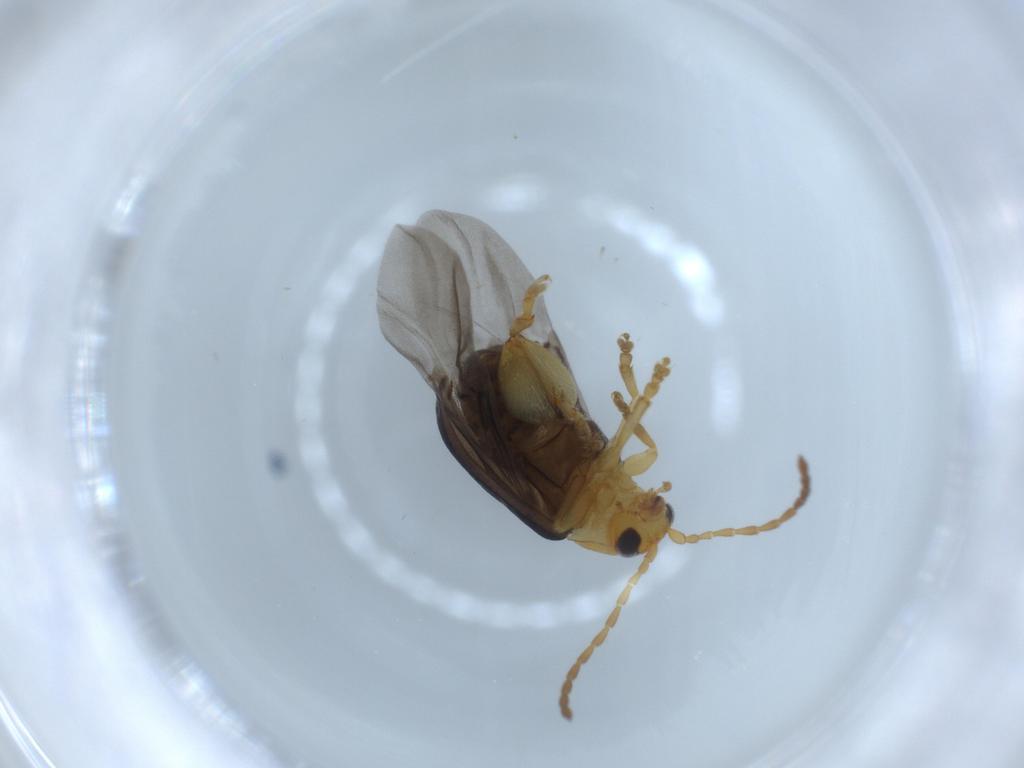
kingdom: Animalia
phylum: Arthropoda
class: Insecta
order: Coleoptera
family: Chrysomelidae
